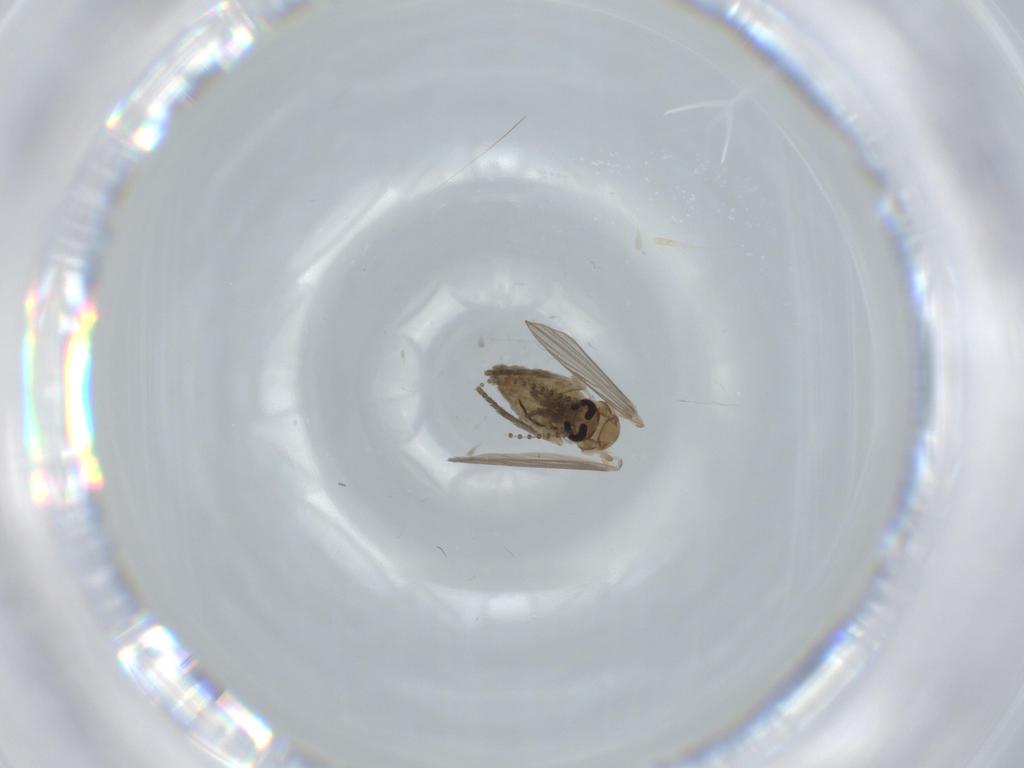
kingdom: Animalia
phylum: Arthropoda
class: Insecta
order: Diptera
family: Psychodidae
